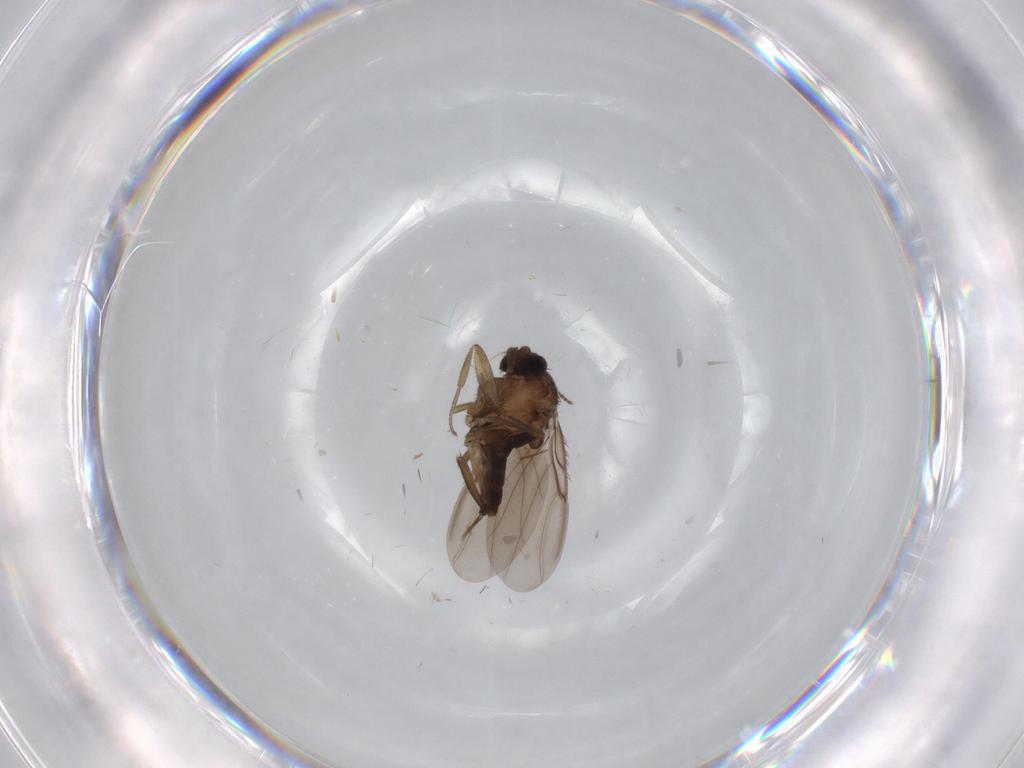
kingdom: Animalia
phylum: Arthropoda
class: Insecta
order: Diptera
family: Phoridae
